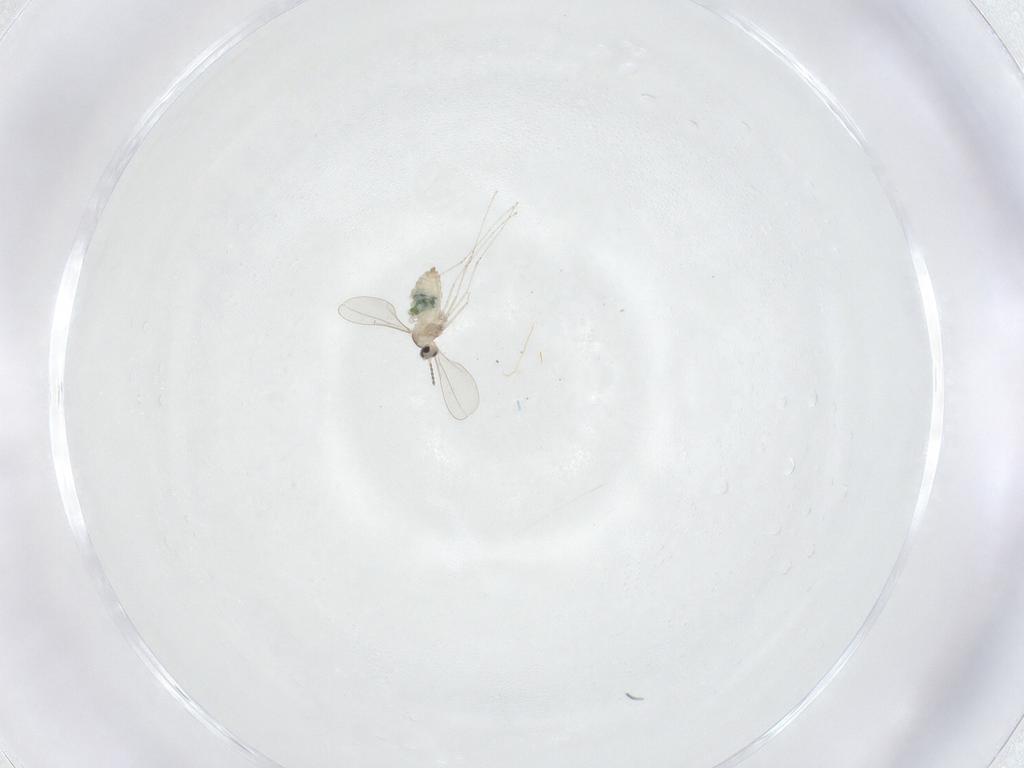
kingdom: Animalia
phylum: Arthropoda
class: Insecta
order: Diptera
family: Cecidomyiidae
